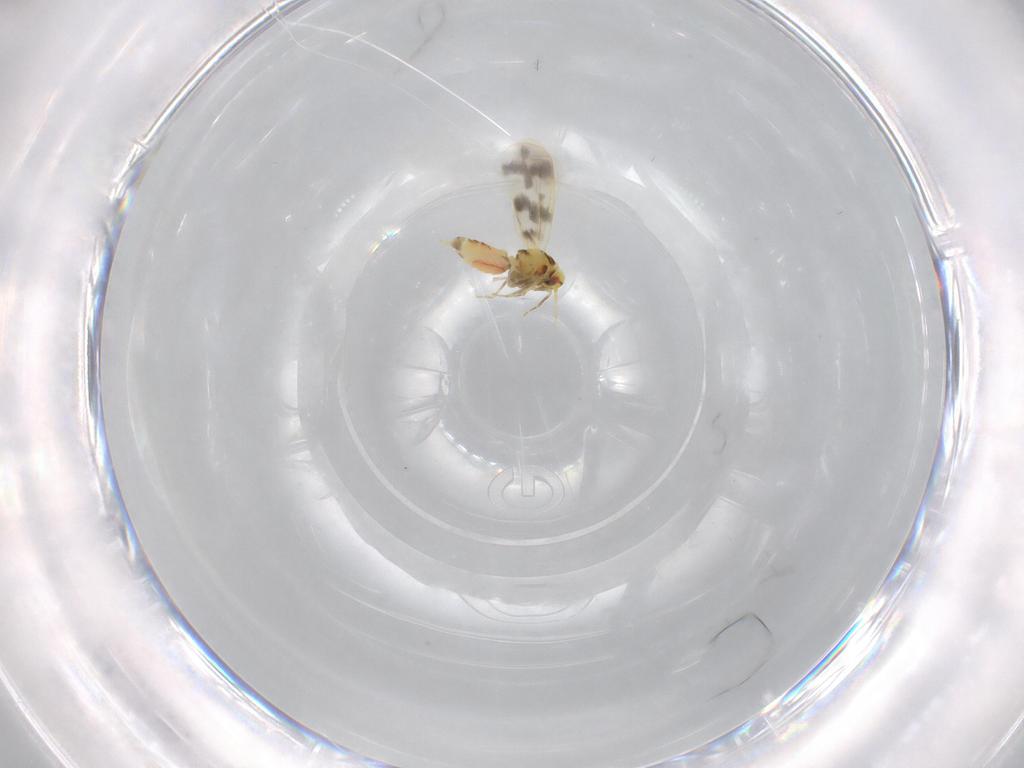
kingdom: Animalia
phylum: Arthropoda
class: Insecta
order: Hemiptera
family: Aleyrodidae
